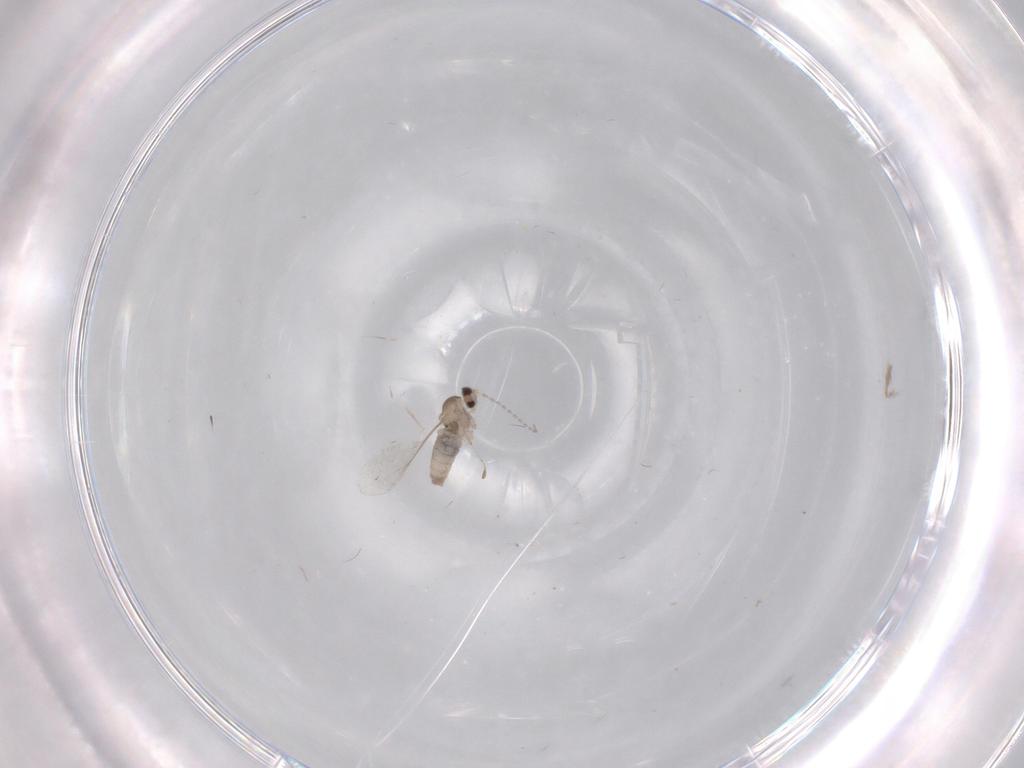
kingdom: Animalia
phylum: Arthropoda
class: Insecta
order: Diptera
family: Cecidomyiidae
